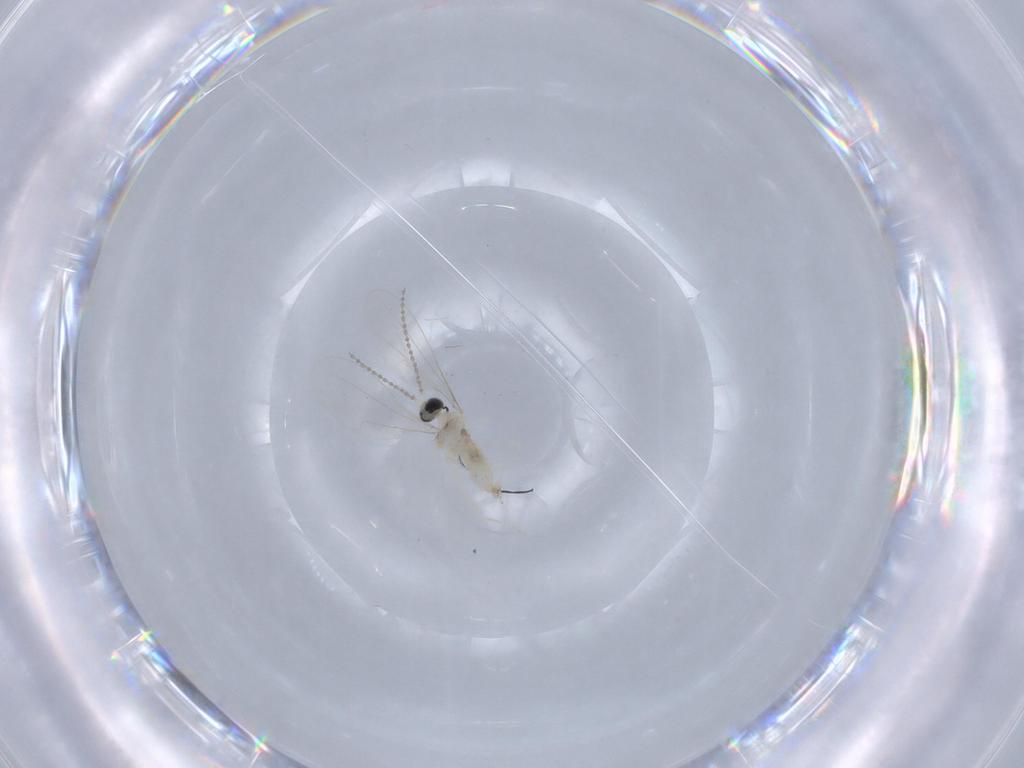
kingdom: Animalia
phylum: Arthropoda
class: Insecta
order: Diptera
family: Cecidomyiidae
